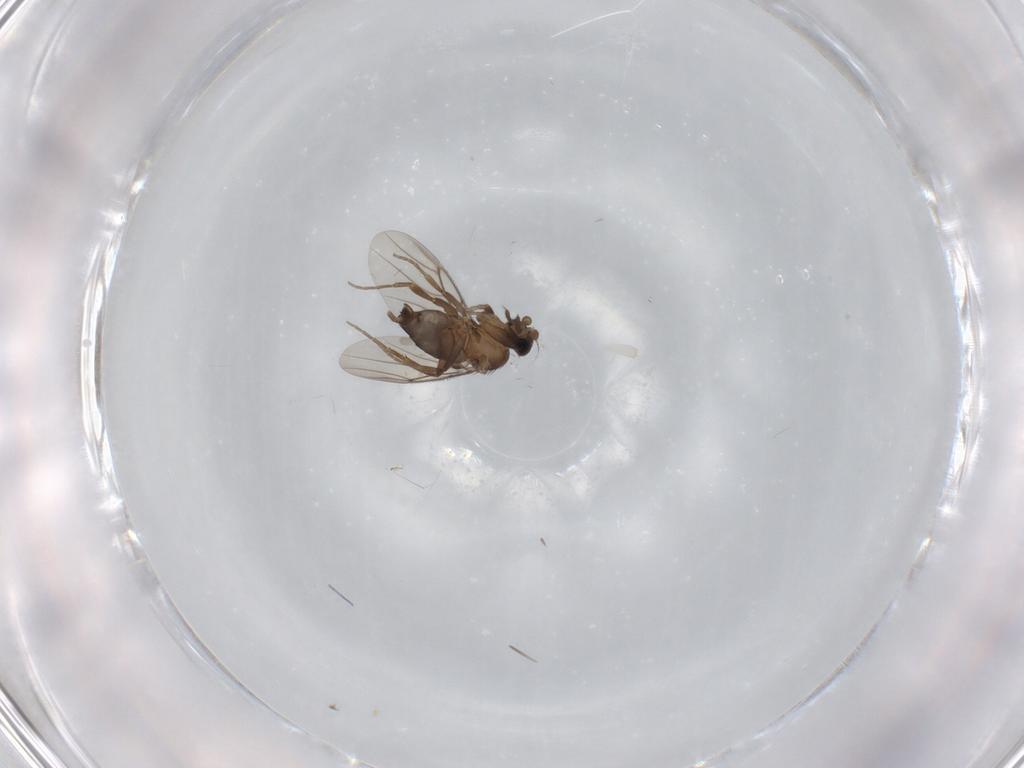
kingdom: Animalia
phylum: Arthropoda
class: Insecta
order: Diptera
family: Phoridae
